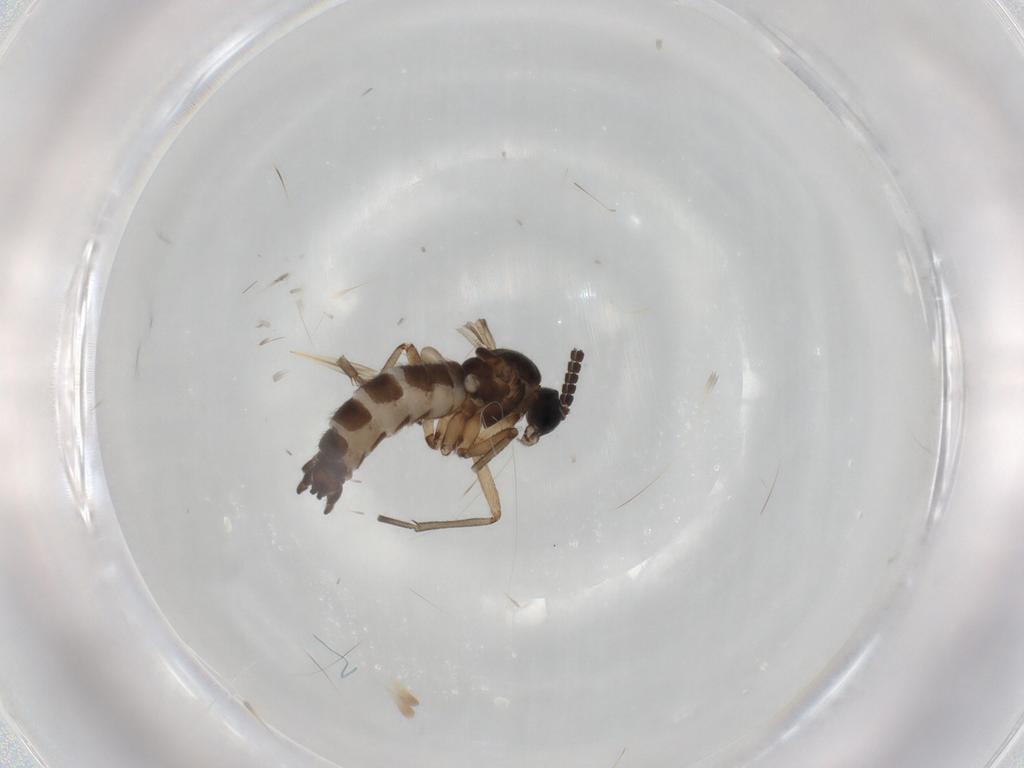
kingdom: Animalia
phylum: Arthropoda
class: Insecta
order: Diptera
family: Sciaridae
